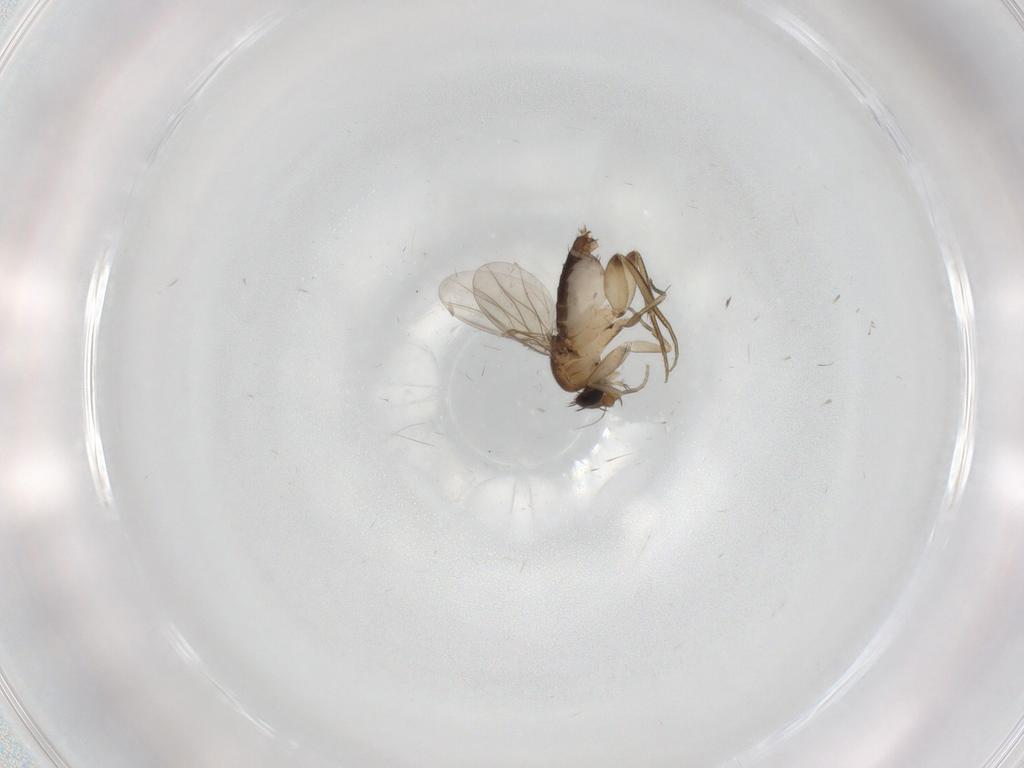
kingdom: Animalia
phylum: Arthropoda
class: Insecta
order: Diptera
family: Phoridae
